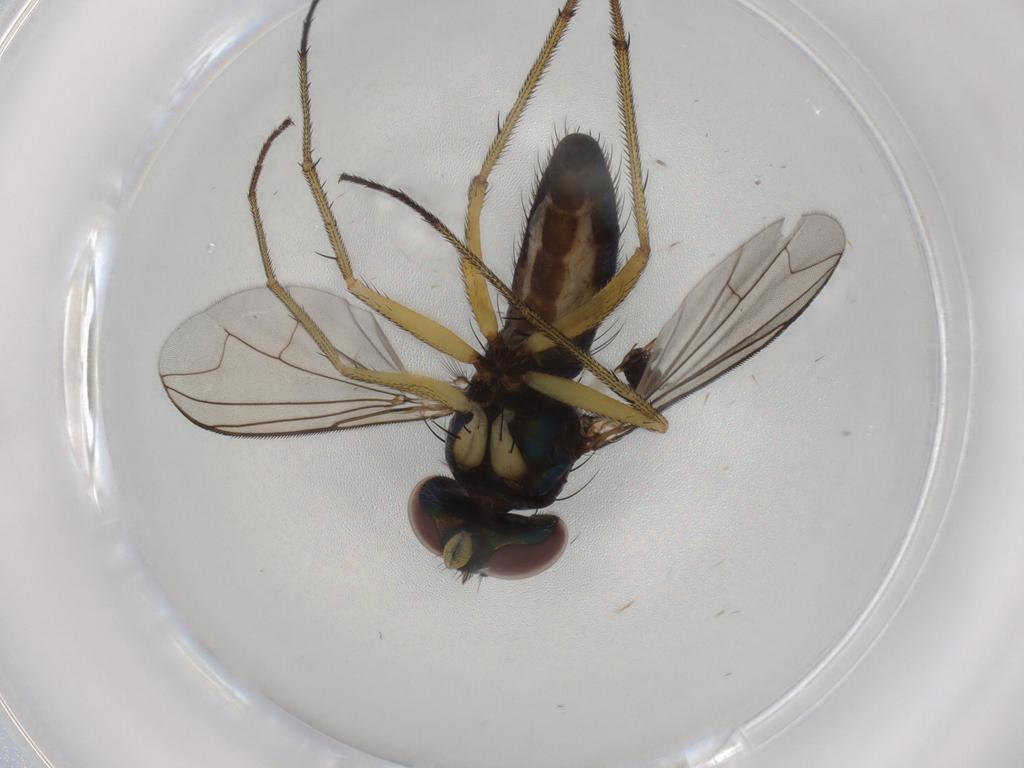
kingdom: Animalia
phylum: Arthropoda
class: Insecta
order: Diptera
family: Dolichopodidae
